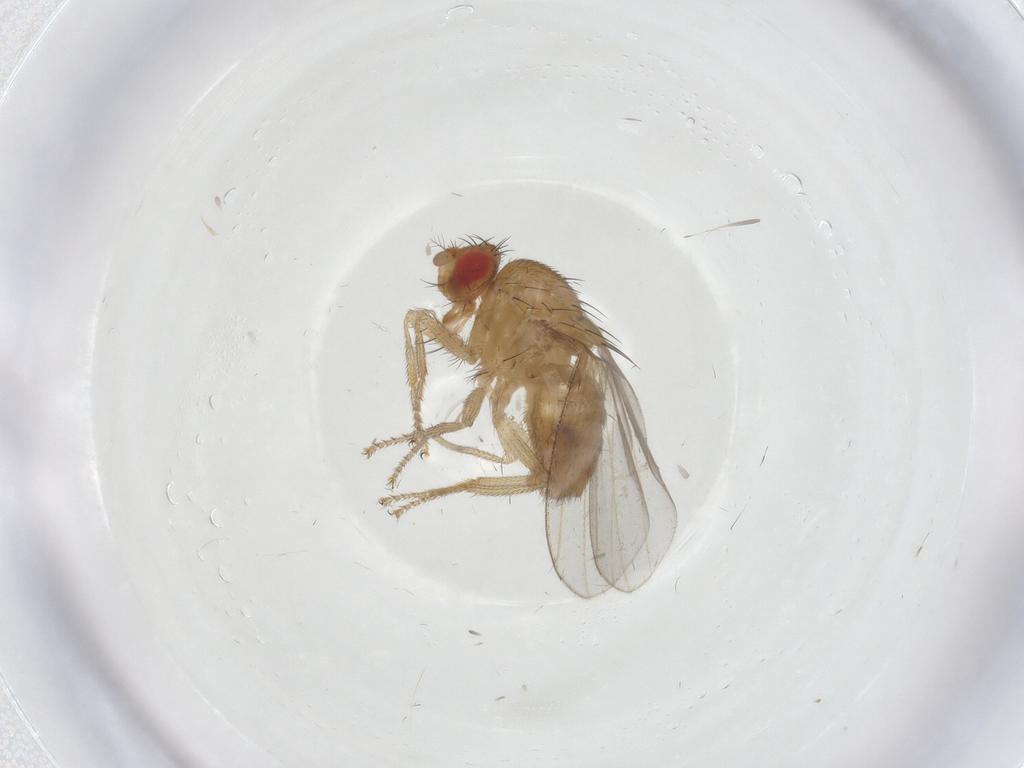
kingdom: Animalia
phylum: Arthropoda
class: Insecta
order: Diptera
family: Drosophilidae
